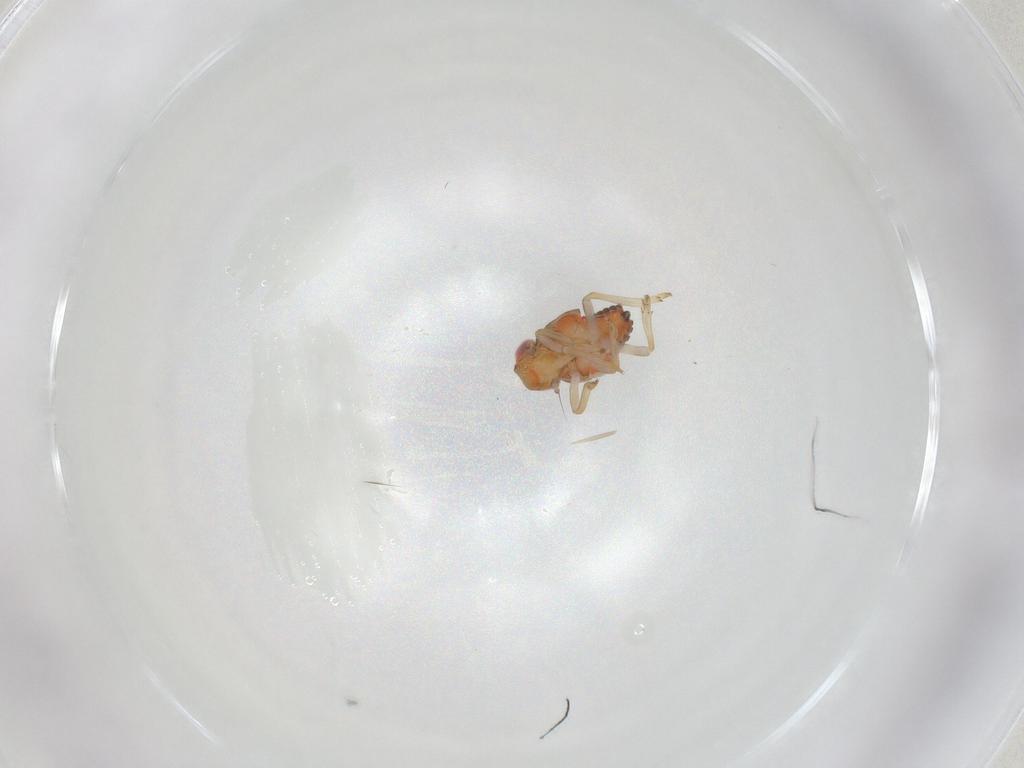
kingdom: Animalia
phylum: Arthropoda
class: Insecta
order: Hemiptera
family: Issidae
